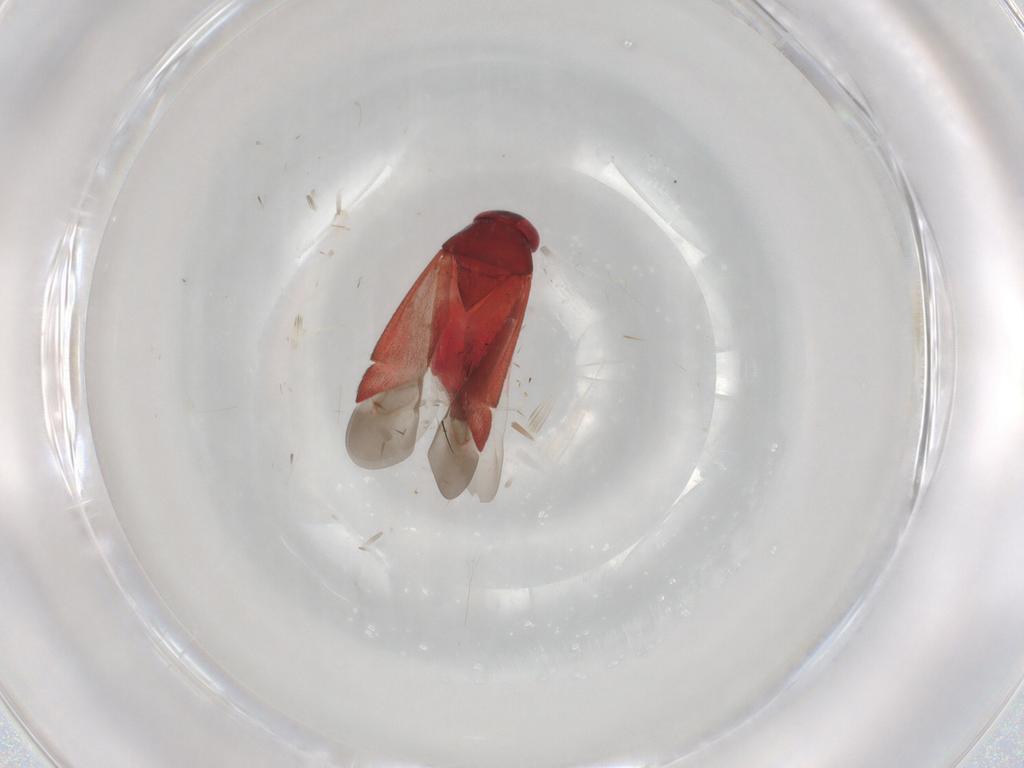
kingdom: Animalia
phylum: Arthropoda
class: Insecta
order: Hemiptera
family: Miridae
